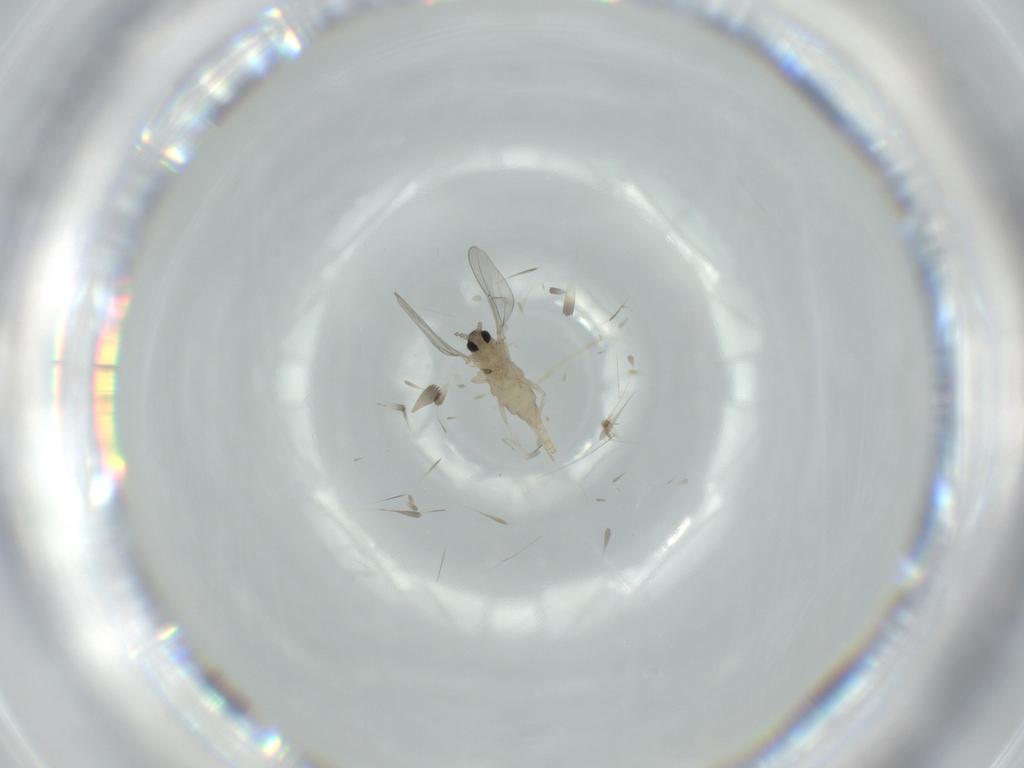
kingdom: Animalia
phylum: Arthropoda
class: Insecta
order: Diptera
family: Cecidomyiidae
